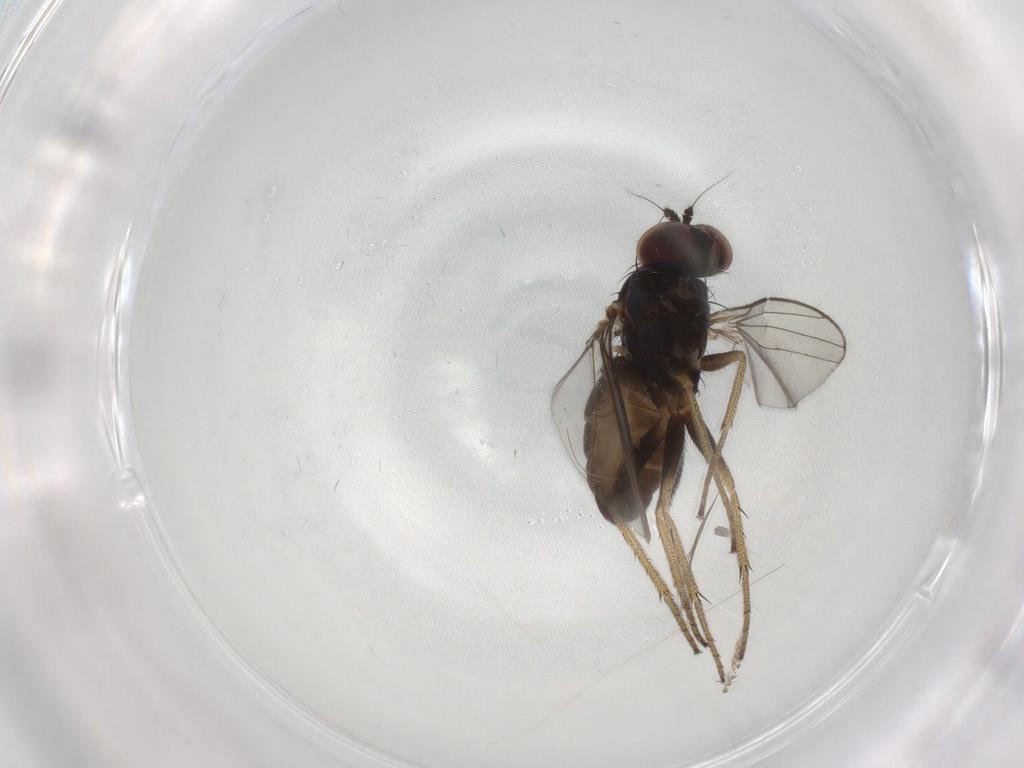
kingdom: Animalia
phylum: Arthropoda
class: Insecta
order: Diptera
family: Dolichopodidae
